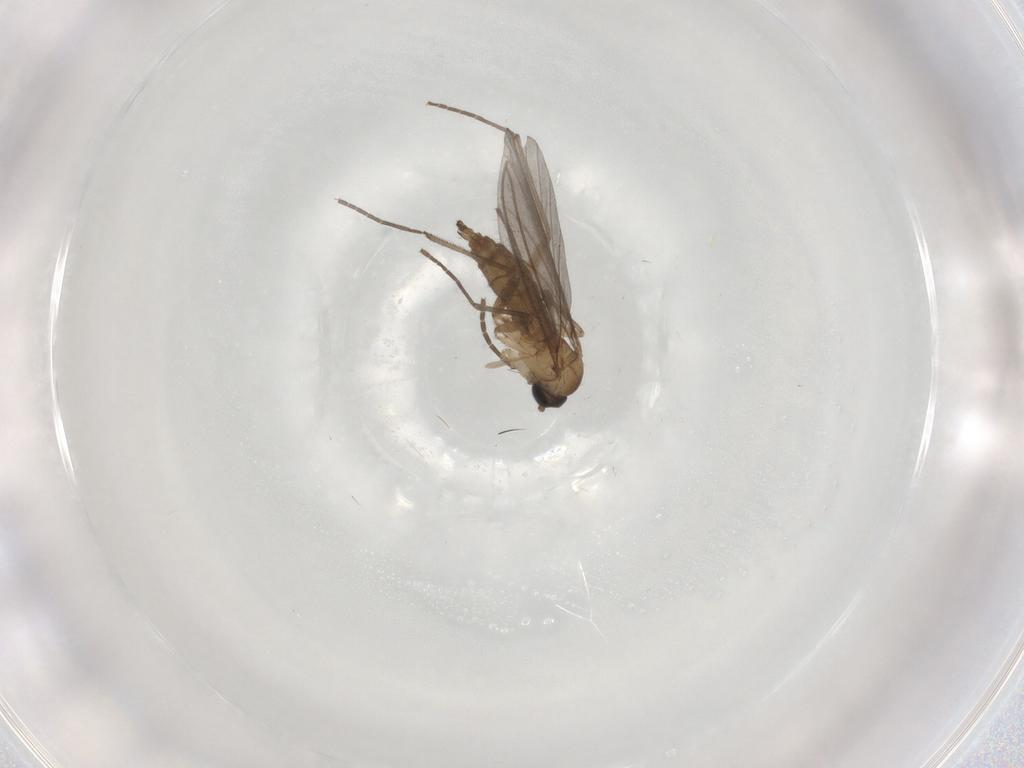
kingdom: Animalia
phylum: Arthropoda
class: Insecta
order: Diptera
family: Sciaridae
